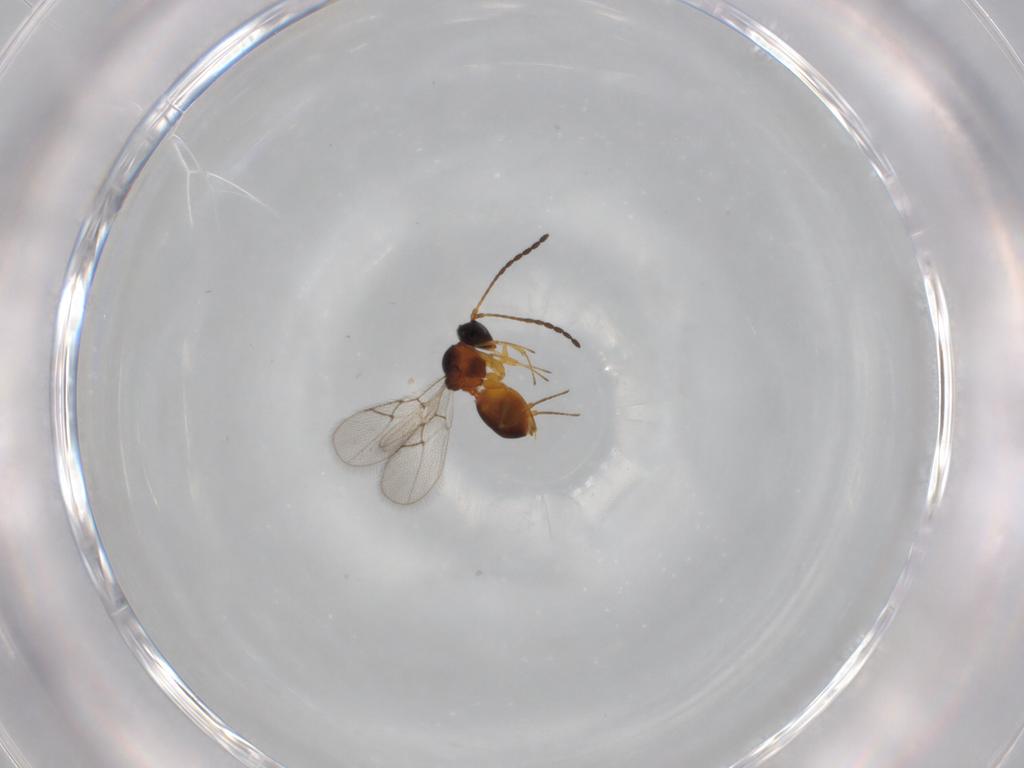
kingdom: Animalia
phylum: Arthropoda
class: Insecta
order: Hymenoptera
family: Figitidae
